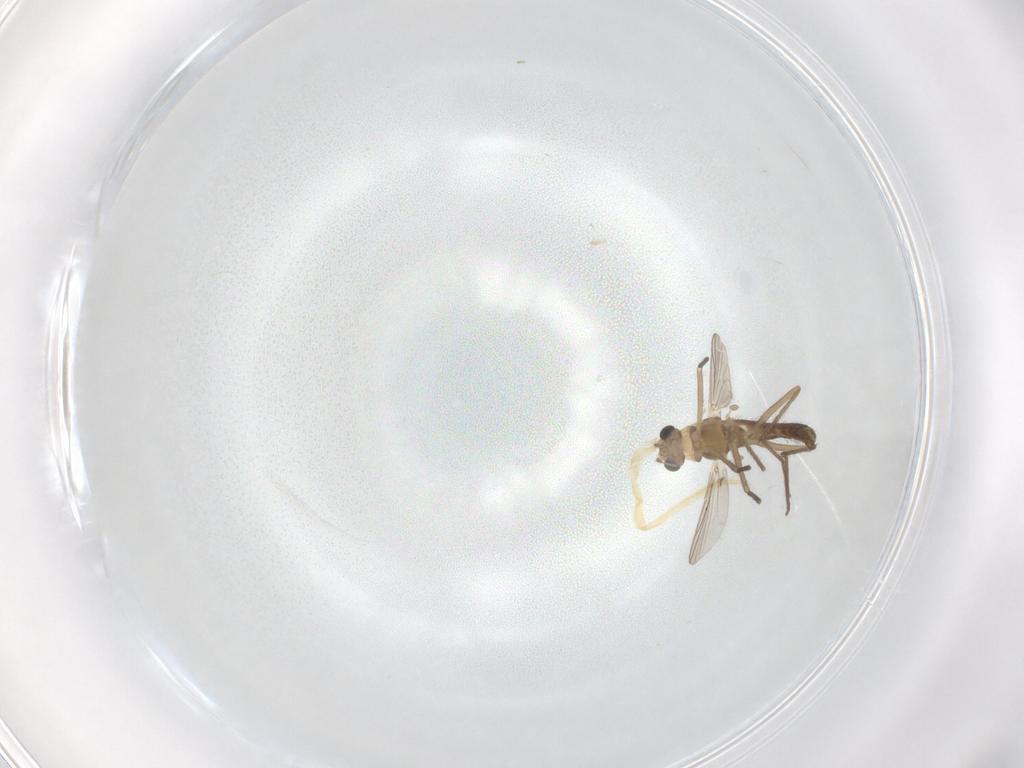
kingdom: Animalia
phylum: Arthropoda
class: Insecta
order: Diptera
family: Chironomidae
